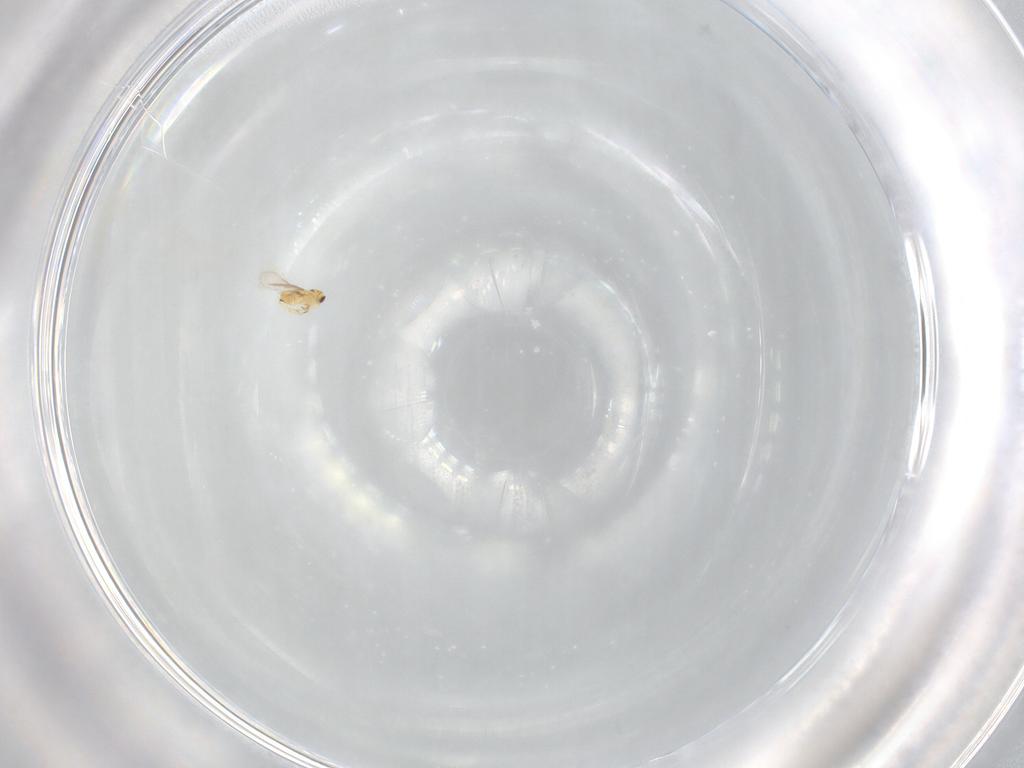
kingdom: Animalia
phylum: Arthropoda
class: Insecta
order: Hymenoptera
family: Aphelinidae
